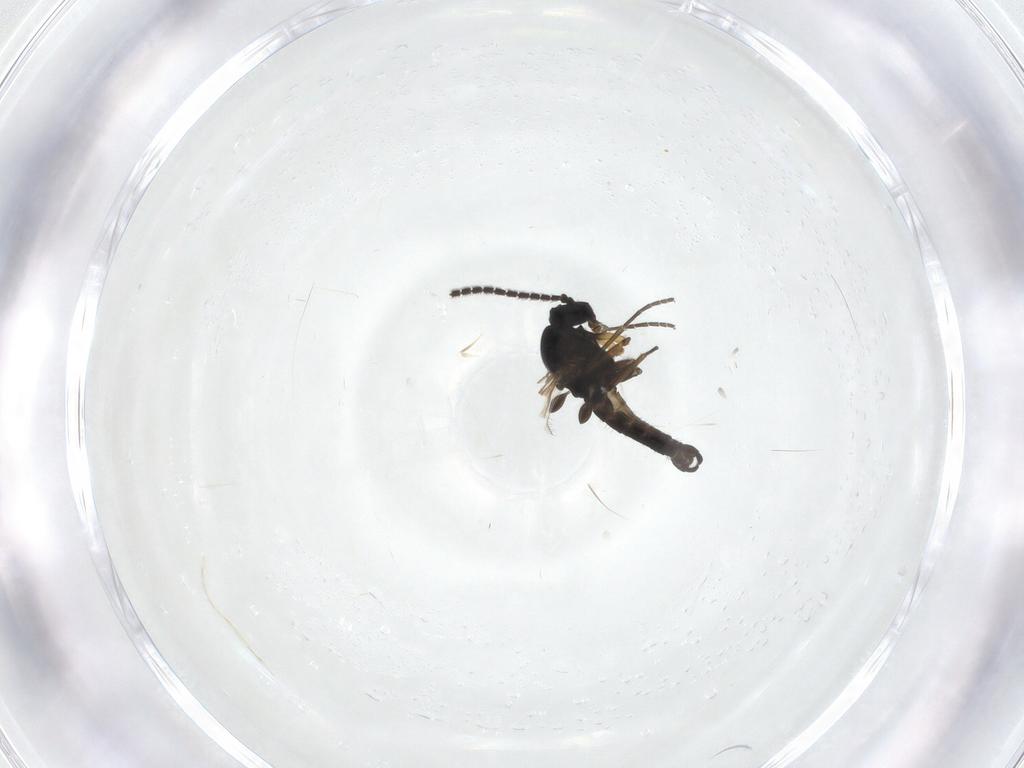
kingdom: Animalia
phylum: Arthropoda
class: Insecta
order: Diptera
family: Sciaridae
